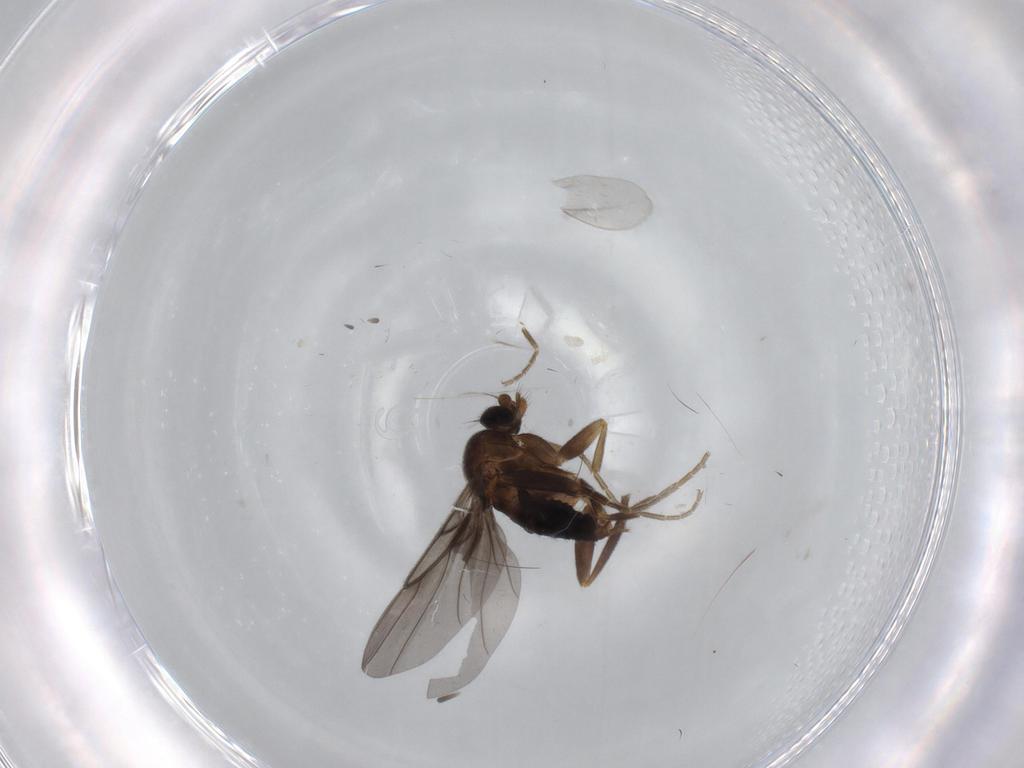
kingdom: Animalia
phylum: Arthropoda
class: Insecta
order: Diptera
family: Phoridae
